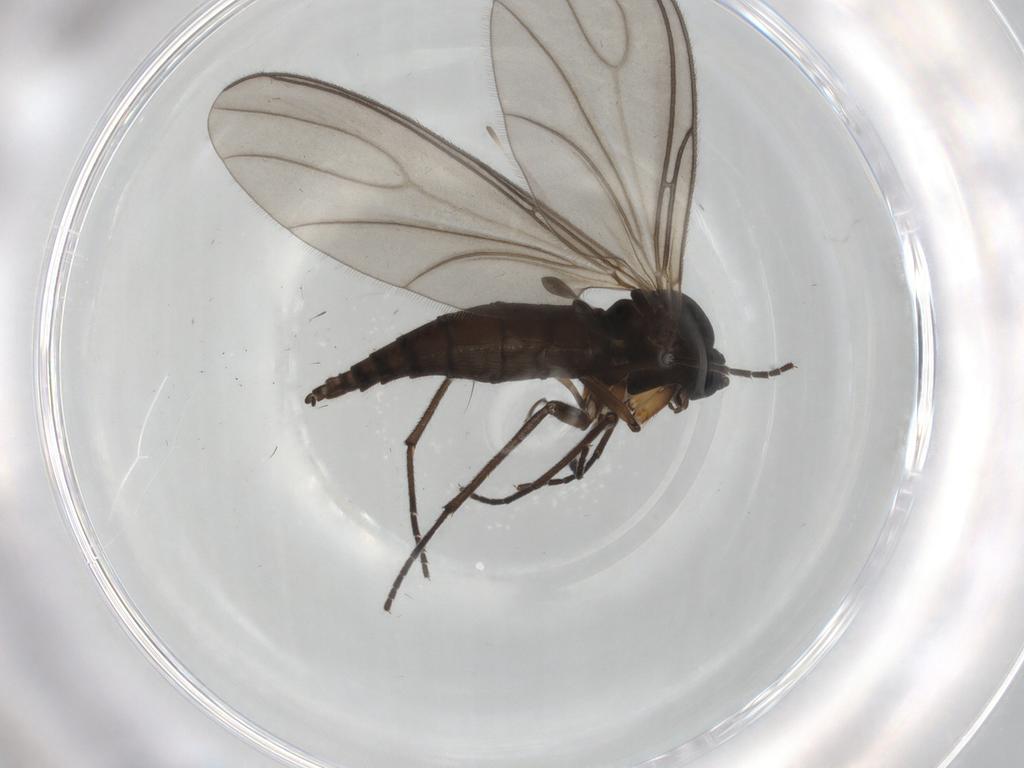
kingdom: Animalia
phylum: Arthropoda
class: Insecta
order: Diptera
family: Sciaridae
